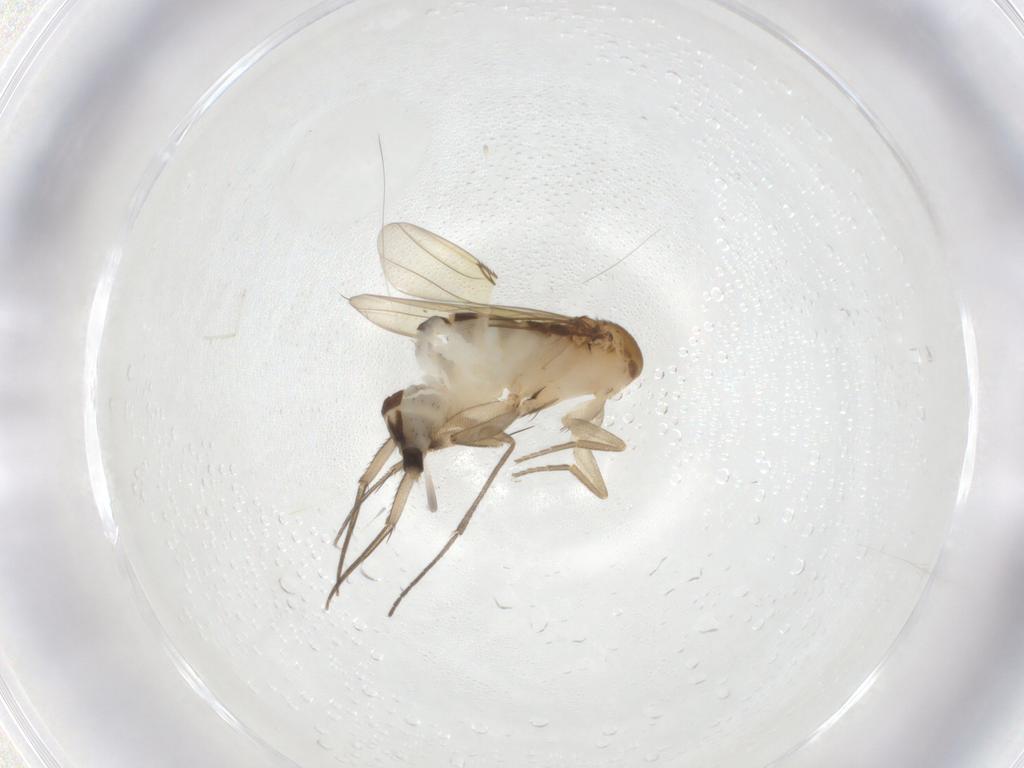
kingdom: Animalia
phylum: Arthropoda
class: Insecta
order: Diptera
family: Phoridae
